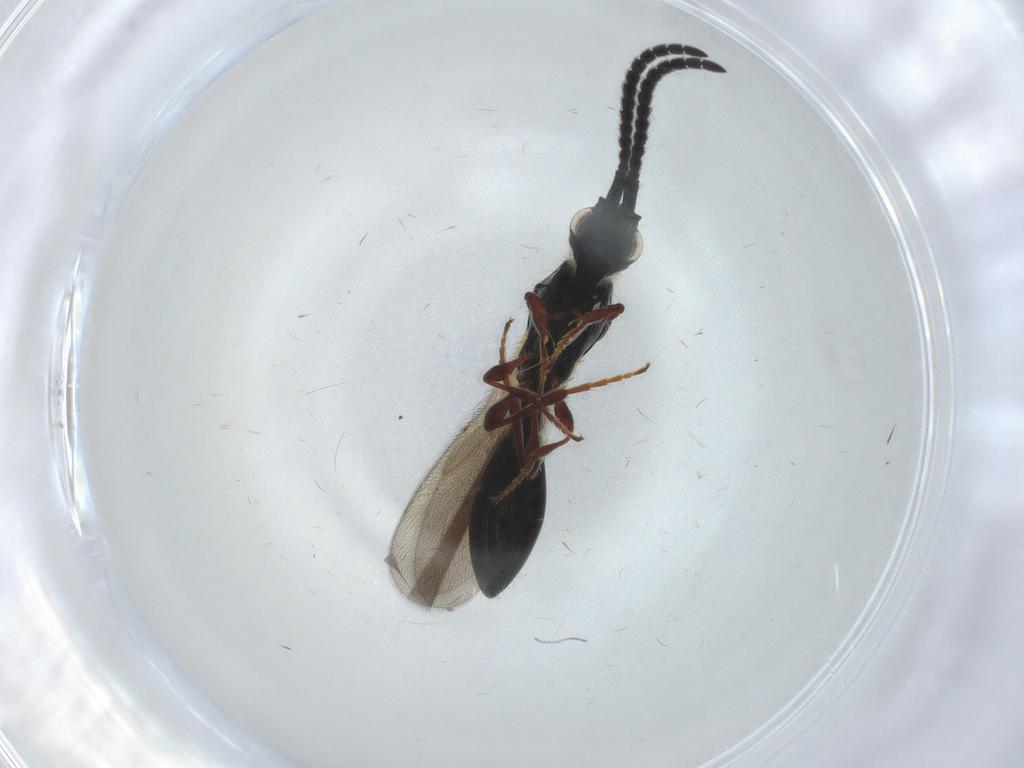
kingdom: Animalia
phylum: Arthropoda
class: Insecta
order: Hymenoptera
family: Diapriidae
